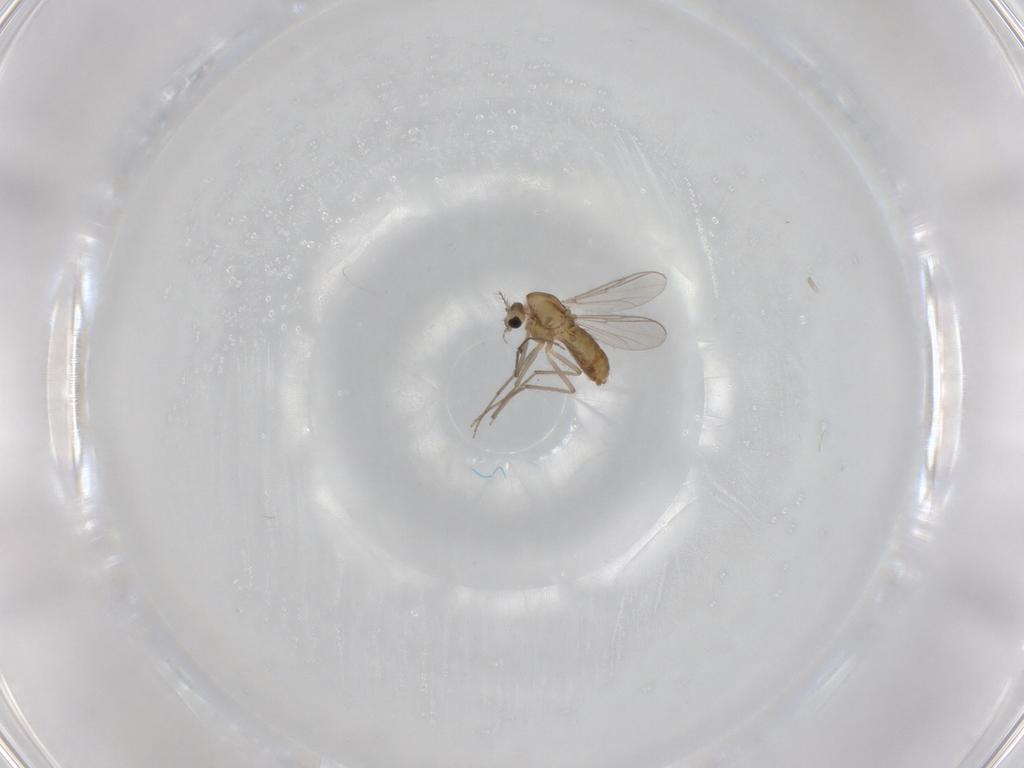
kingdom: Animalia
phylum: Arthropoda
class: Insecta
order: Diptera
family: Chironomidae
